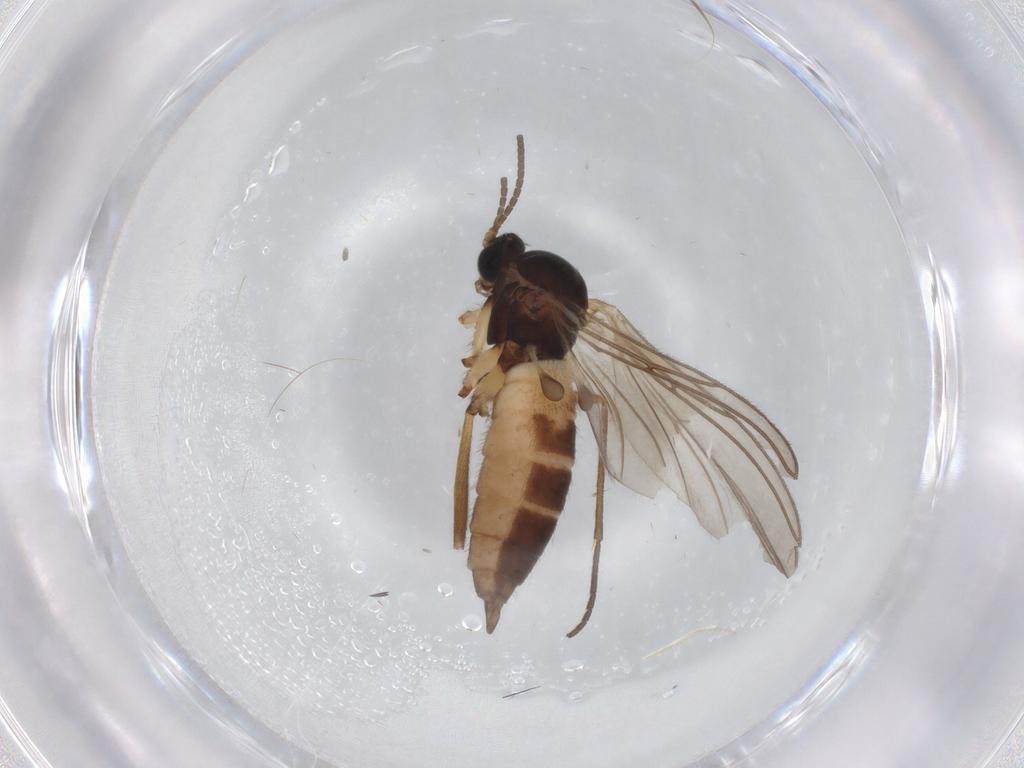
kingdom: Animalia
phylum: Arthropoda
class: Insecta
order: Diptera
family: Sciaridae
